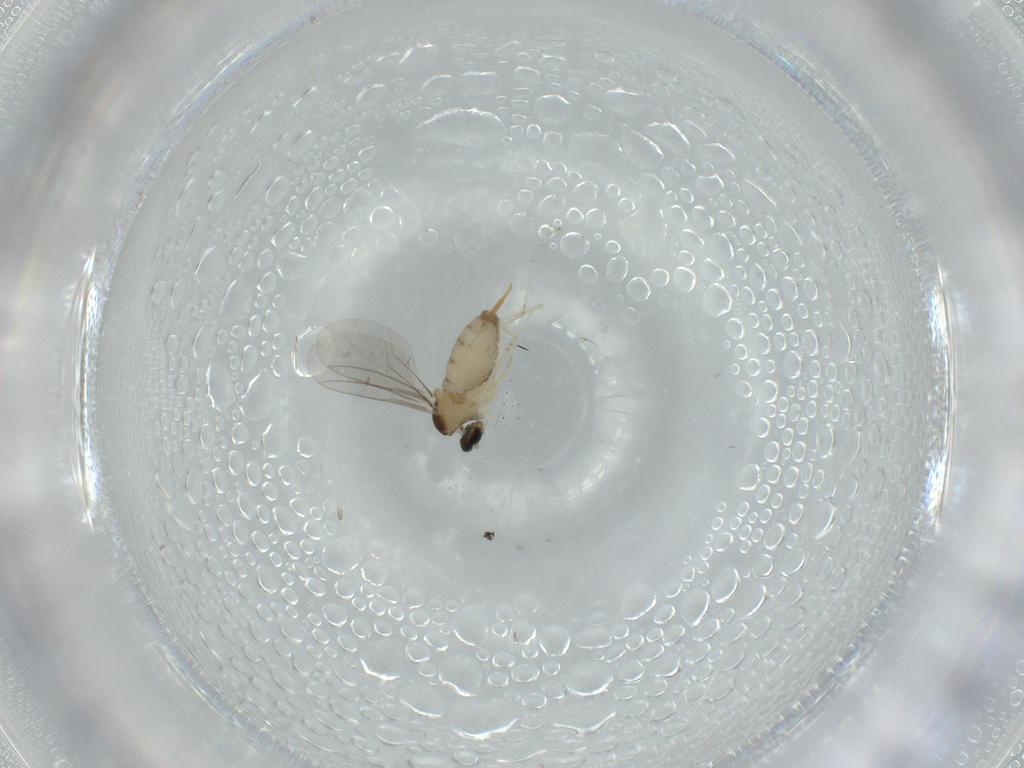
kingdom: Animalia
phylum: Arthropoda
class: Insecta
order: Diptera
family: Cecidomyiidae
